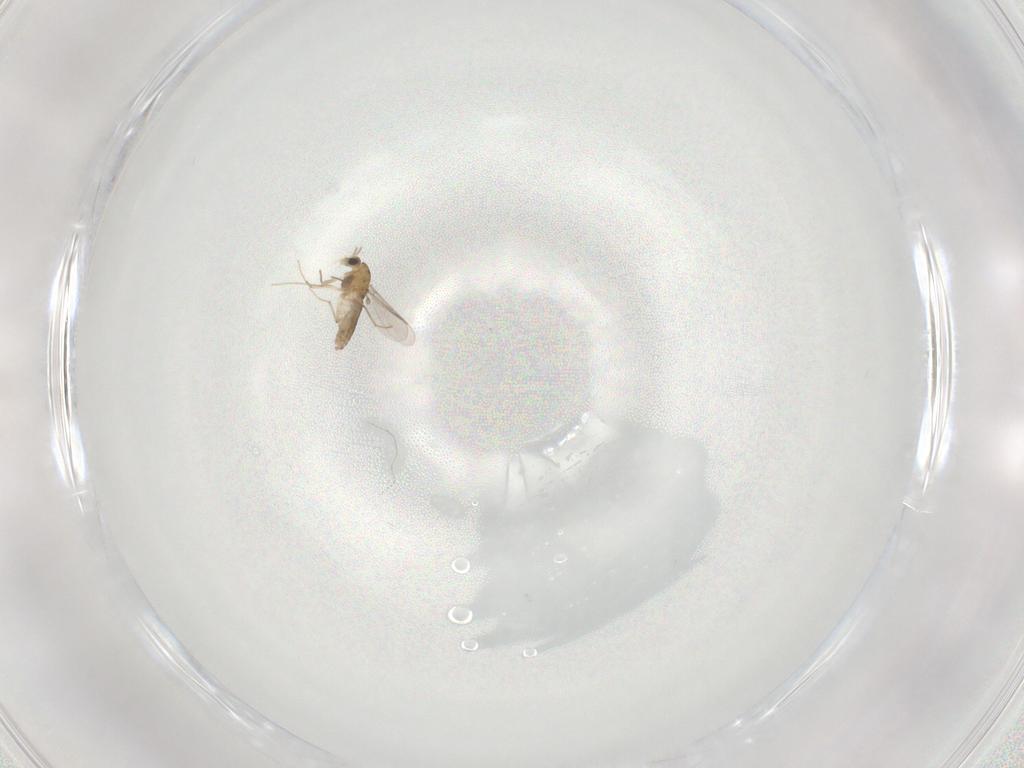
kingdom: Animalia
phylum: Arthropoda
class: Insecta
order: Diptera
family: Chironomidae
